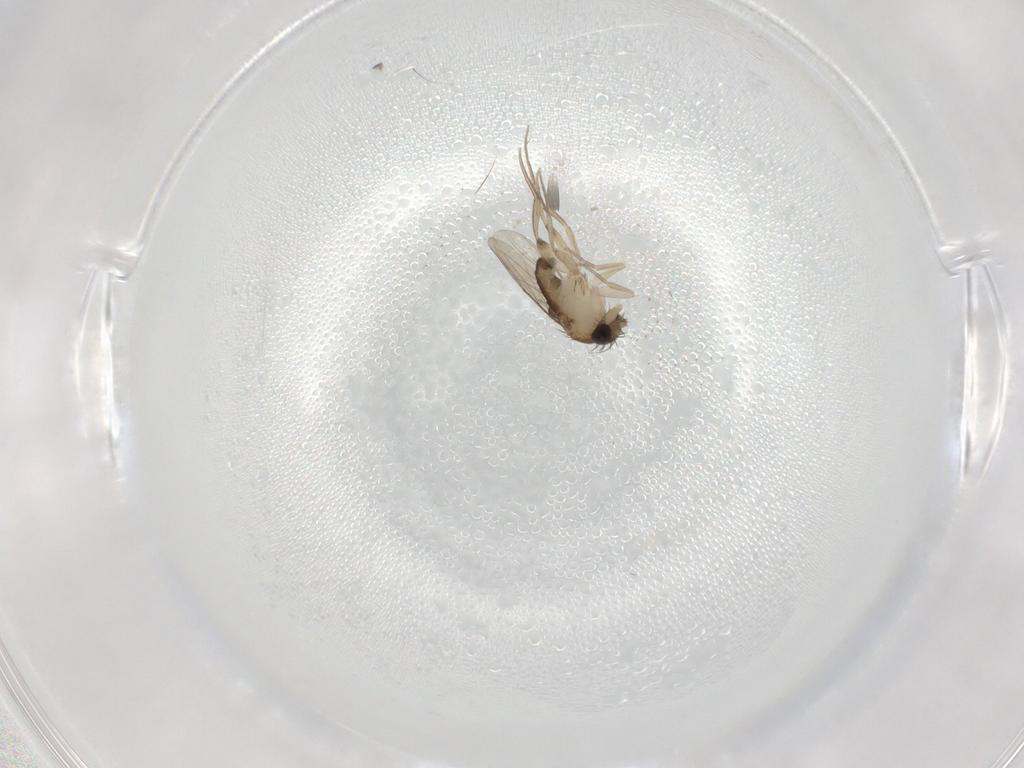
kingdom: Animalia
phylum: Arthropoda
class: Insecta
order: Diptera
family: Phoridae
